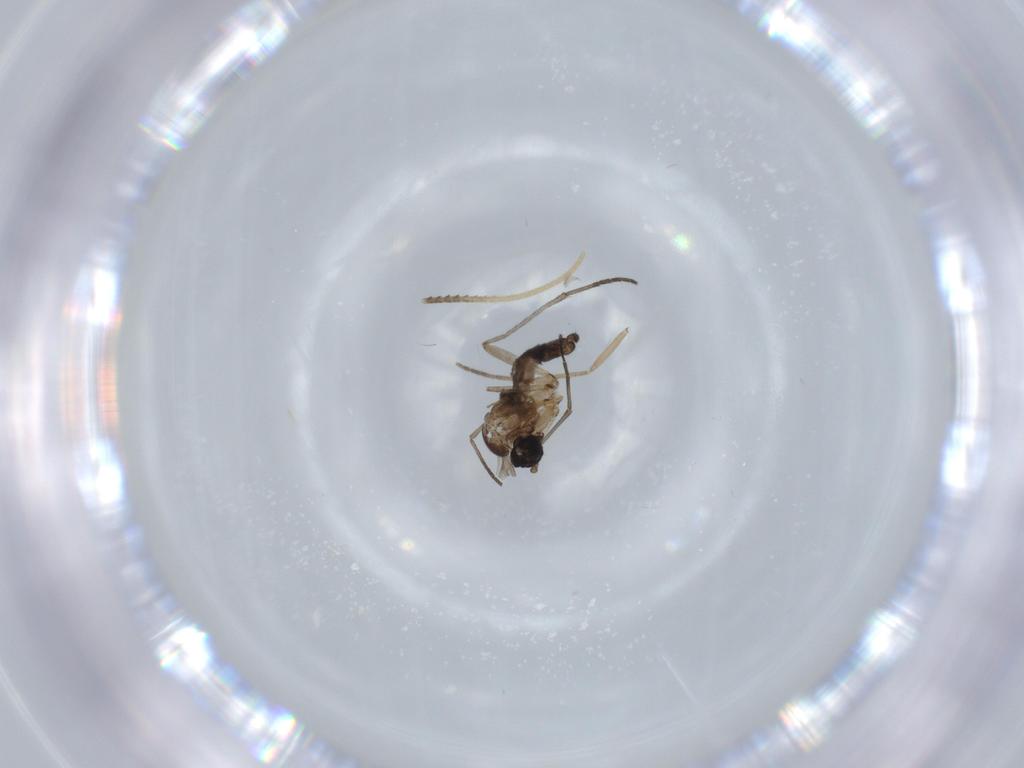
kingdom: Animalia
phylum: Arthropoda
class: Insecta
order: Diptera
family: Sciaridae
